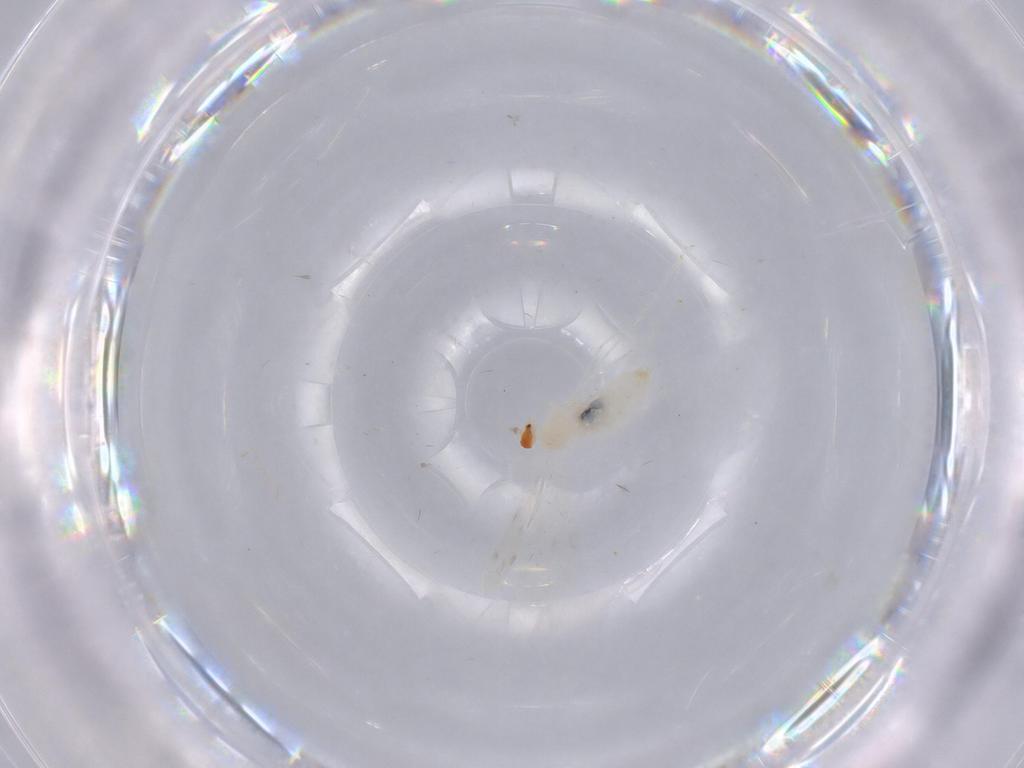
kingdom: Animalia
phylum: Arthropoda
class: Insecta
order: Diptera
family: Cecidomyiidae
